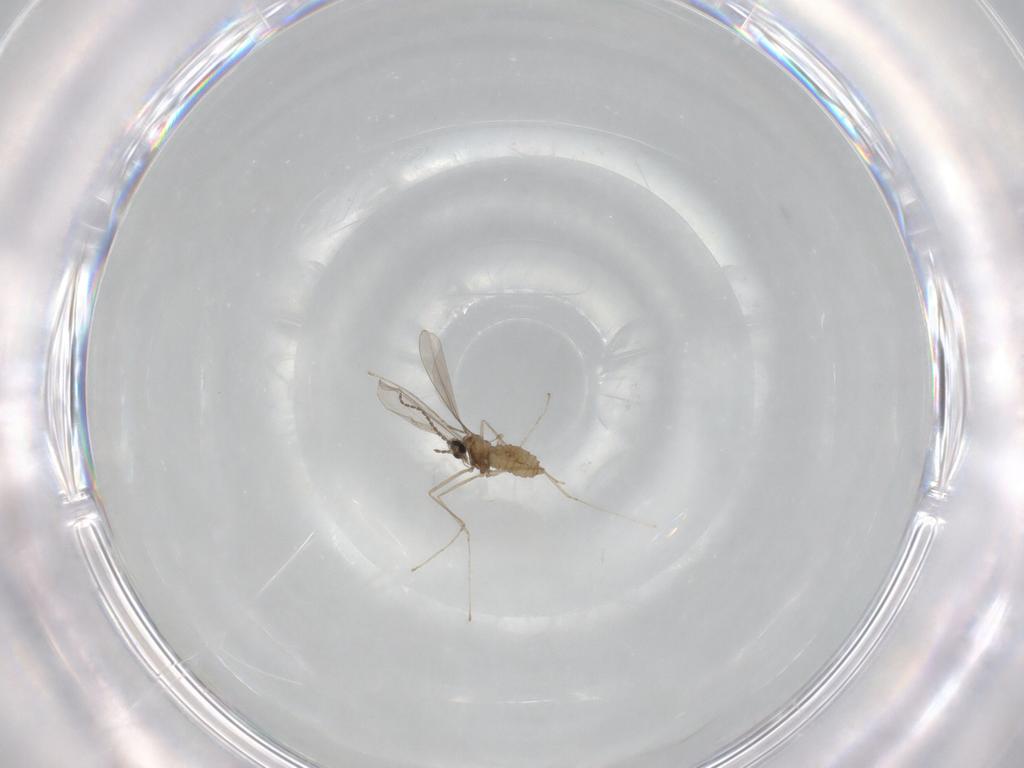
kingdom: Animalia
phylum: Arthropoda
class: Insecta
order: Diptera
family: Cecidomyiidae
